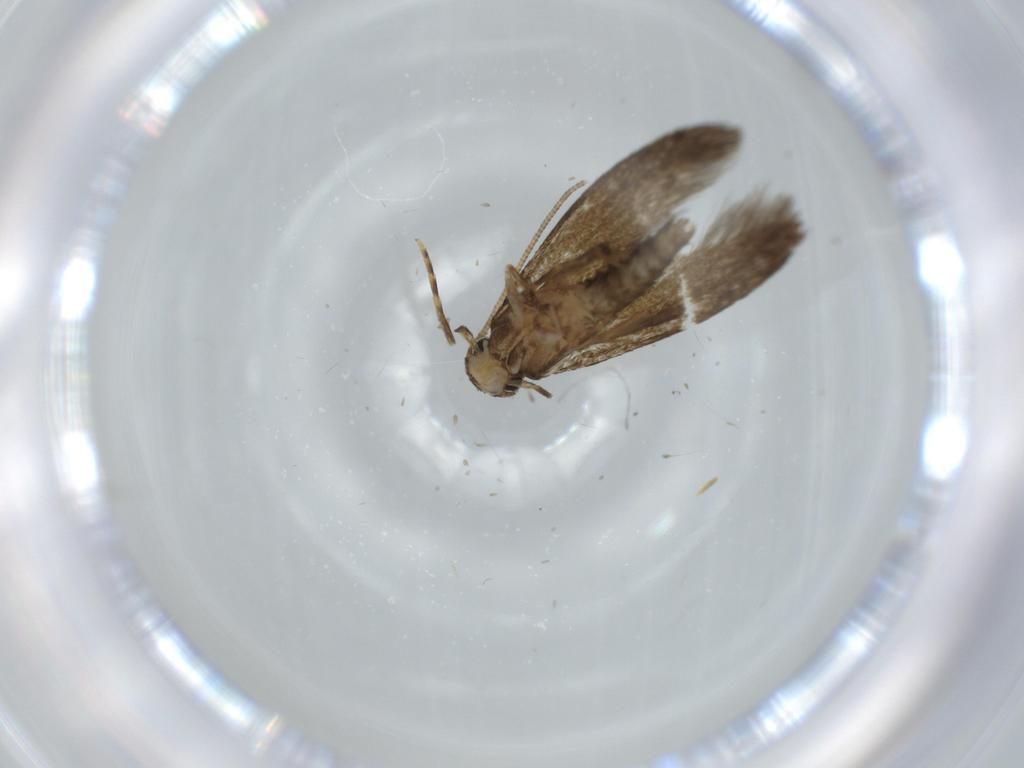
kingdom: Animalia
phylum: Arthropoda
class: Insecta
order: Lepidoptera
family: Tineidae
